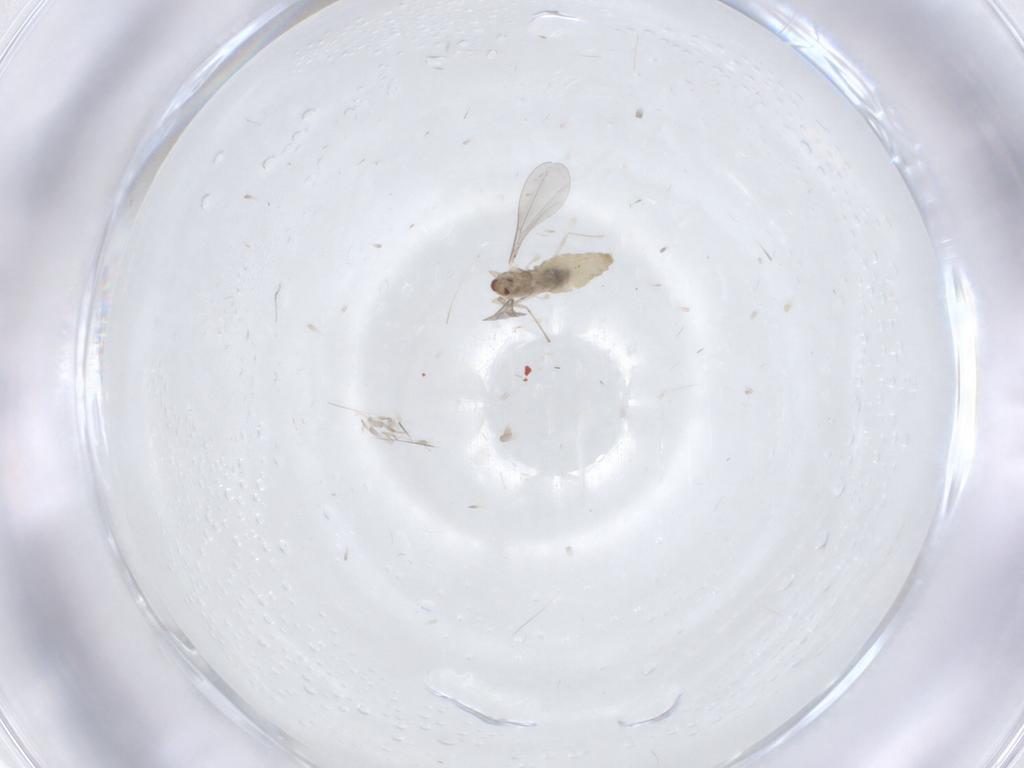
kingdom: Animalia
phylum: Arthropoda
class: Insecta
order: Diptera
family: Cecidomyiidae
